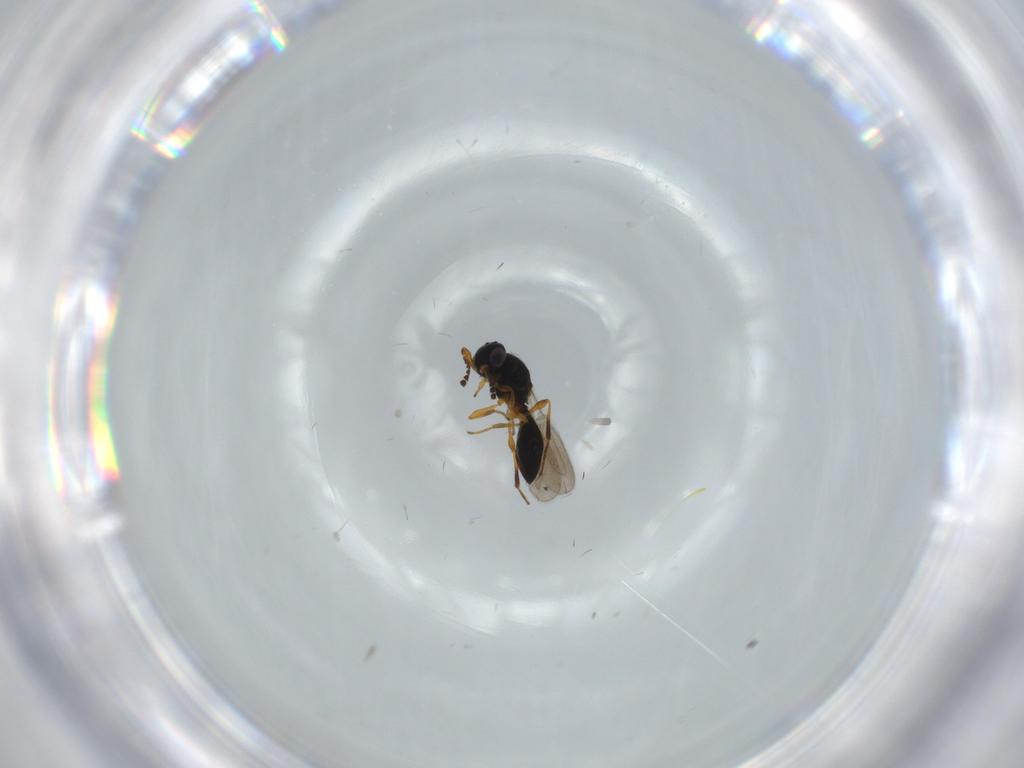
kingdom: Animalia
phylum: Arthropoda
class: Insecta
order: Hymenoptera
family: Platygastridae
